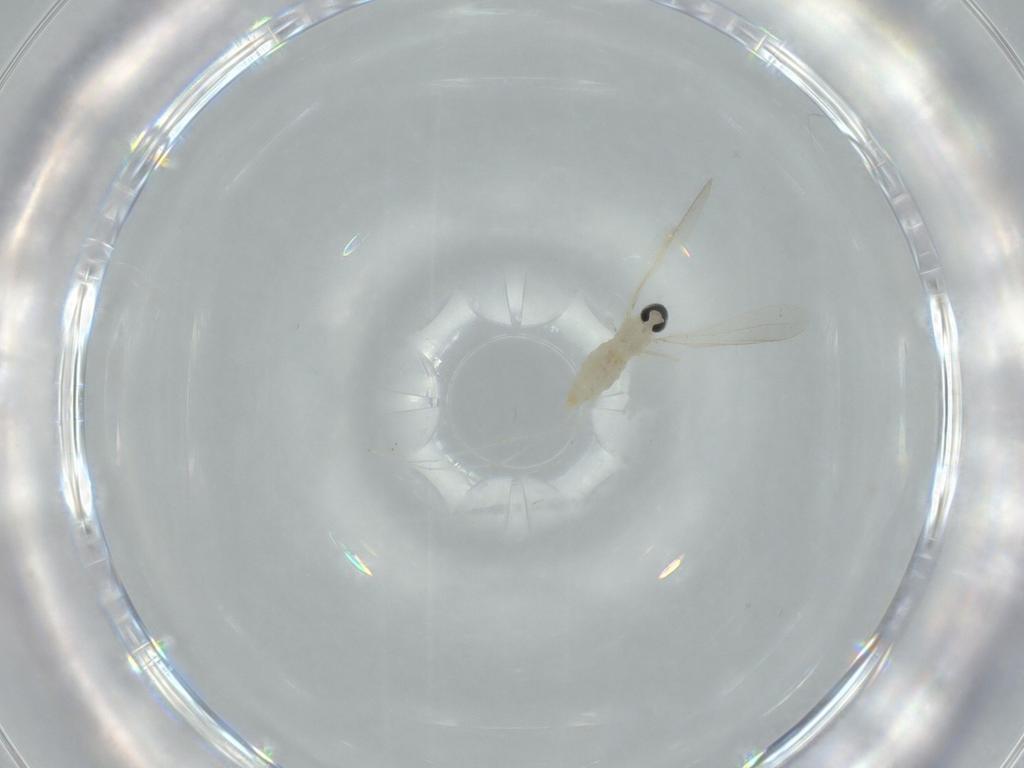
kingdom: Animalia
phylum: Arthropoda
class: Insecta
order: Diptera
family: Cecidomyiidae
